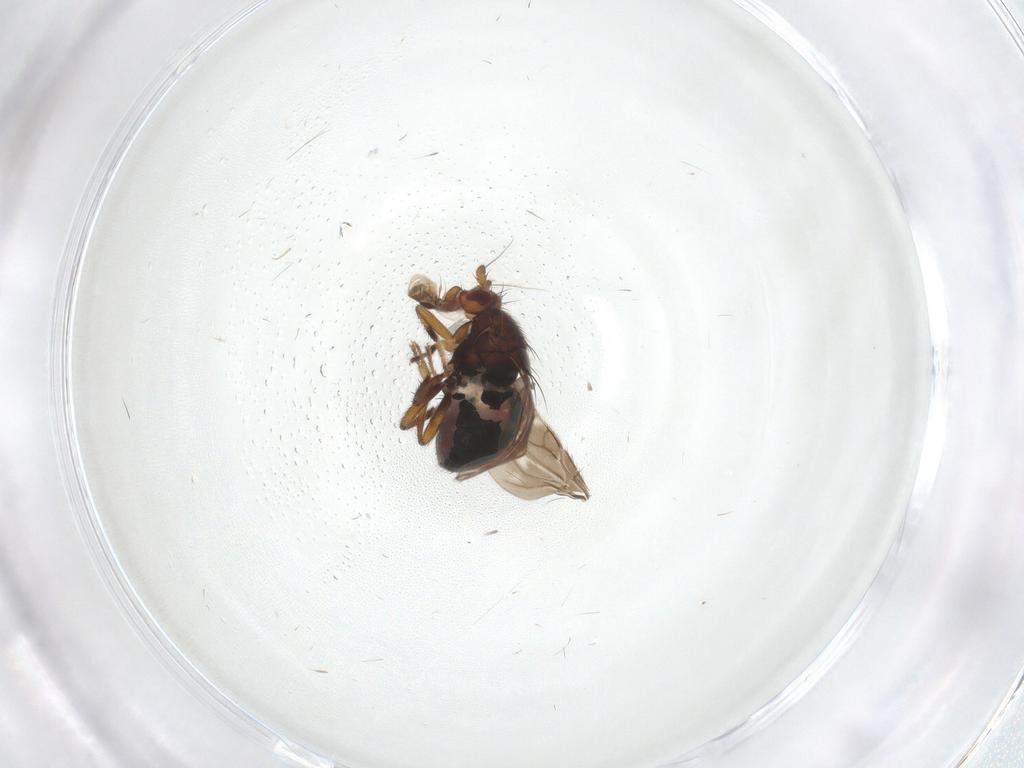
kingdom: Animalia
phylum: Arthropoda
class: Insecta
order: Diptera
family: Sphaeroceridae
